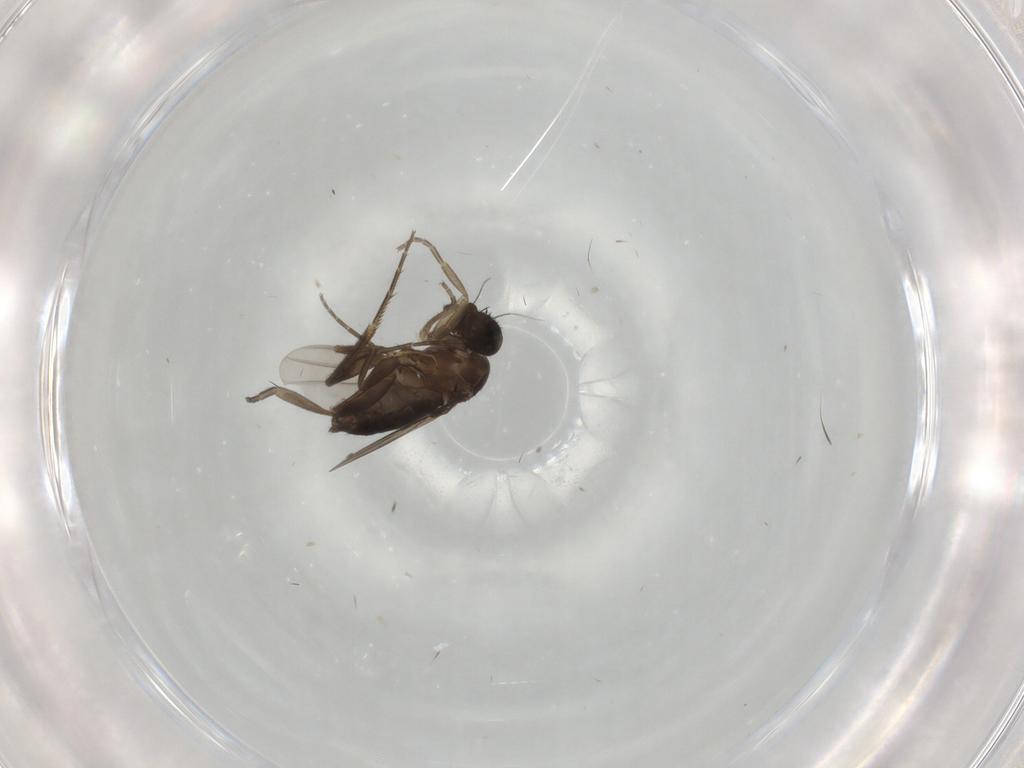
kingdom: Animalia
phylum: Arthropoda
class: Insecta
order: Diptera
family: Phoridae
